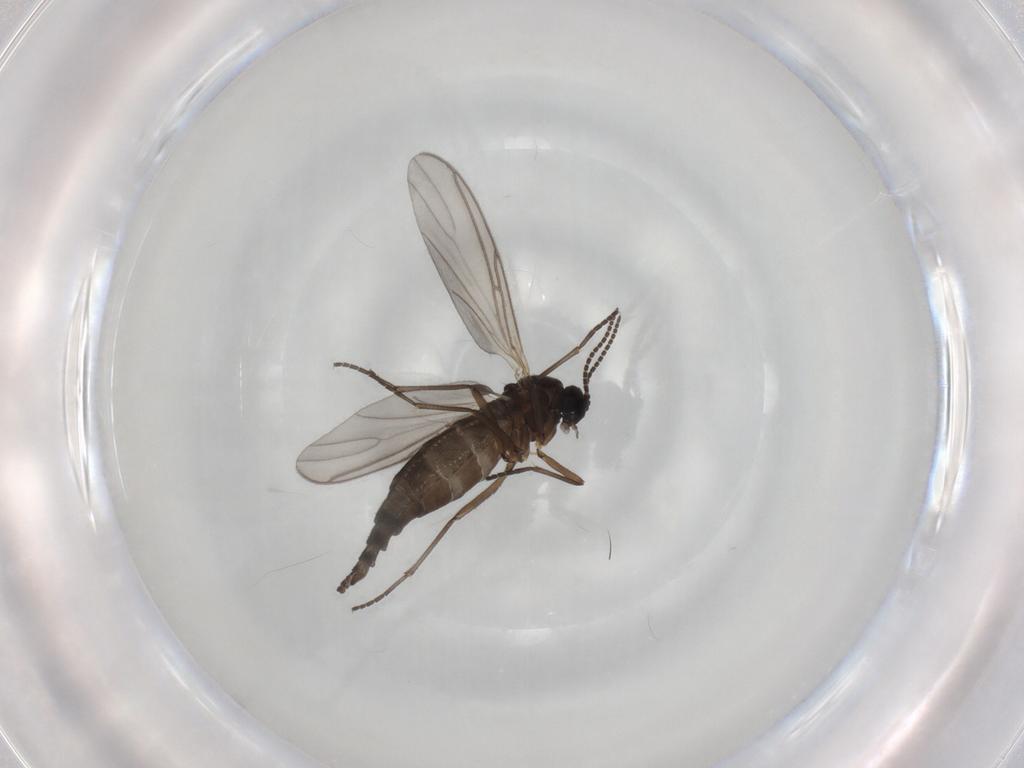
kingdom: Animalia
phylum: Arthropoda
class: Insecta
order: Diptera
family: Sciaridae
